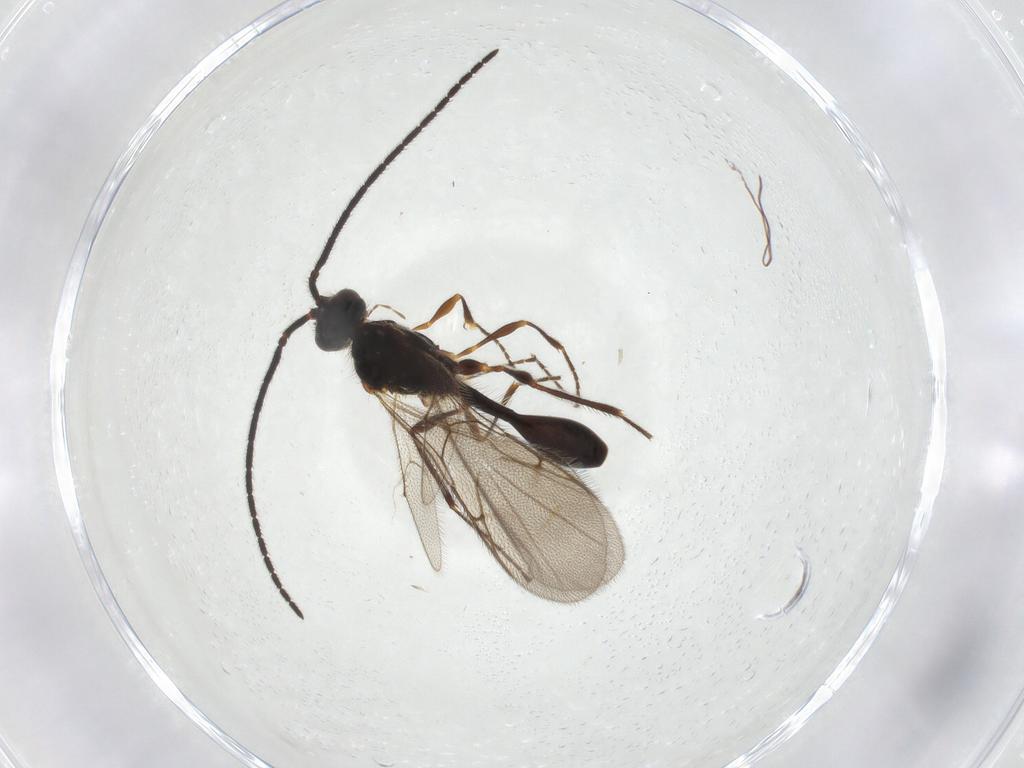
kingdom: Animalia
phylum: Arthropoda
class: Insecta
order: Hymenoptera
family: Diapriidae
